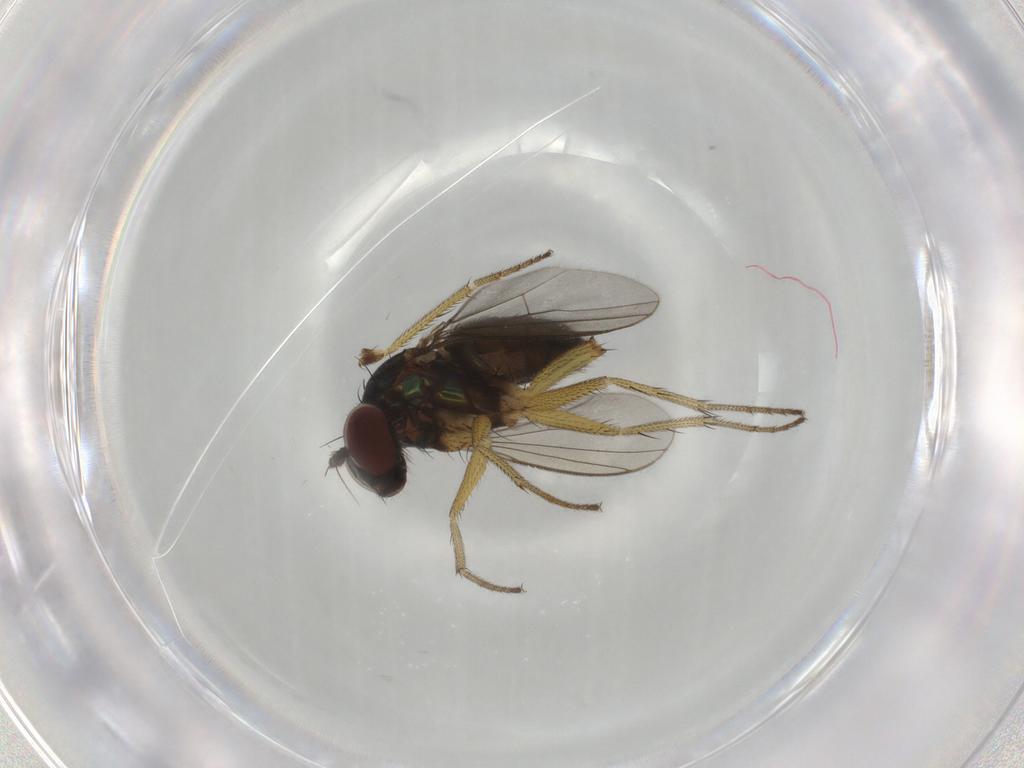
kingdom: Animalia
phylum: Arthropoda
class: Insecta
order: Diptera
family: Dolichopodidae
